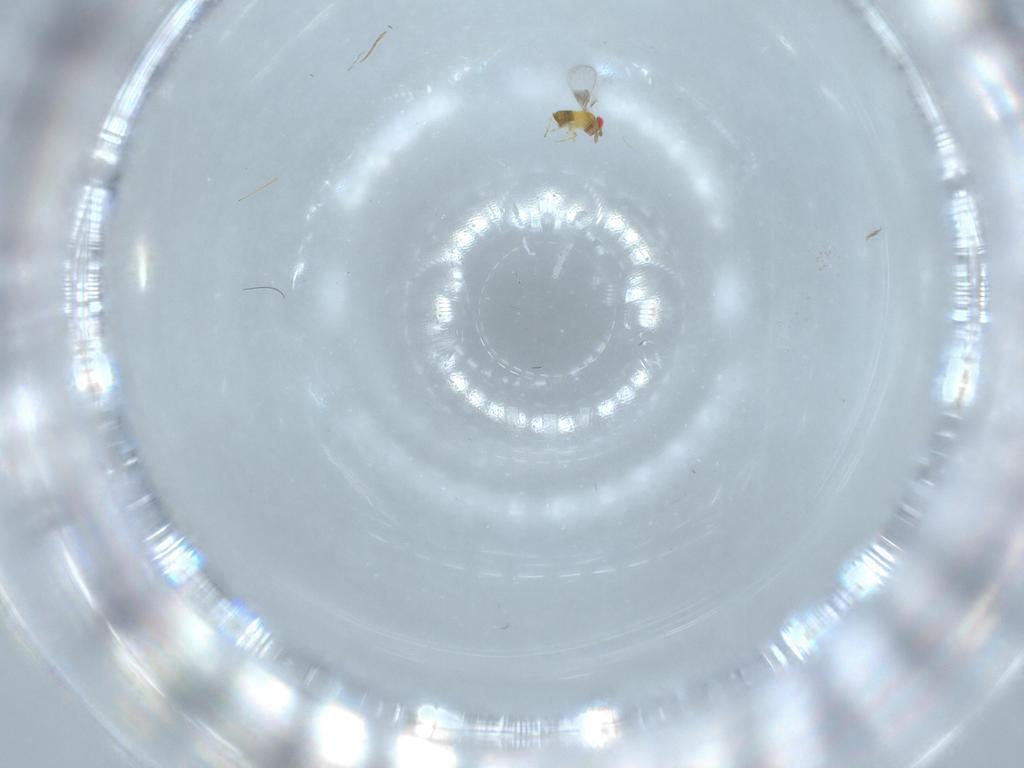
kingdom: Animalia
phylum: Arthropoda
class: Insecta
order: Hymenoptera
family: Trichogrammatidae
